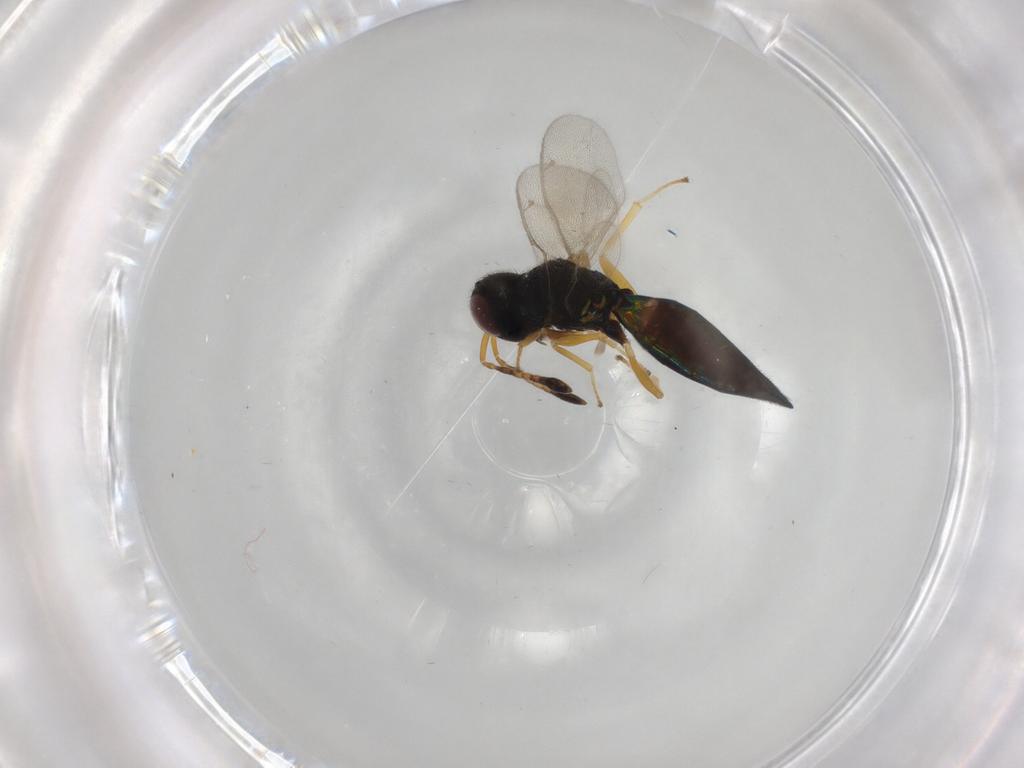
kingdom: Animalia
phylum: Arthropoda
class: Insecta
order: Hymenoptera
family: Pteromalidae
